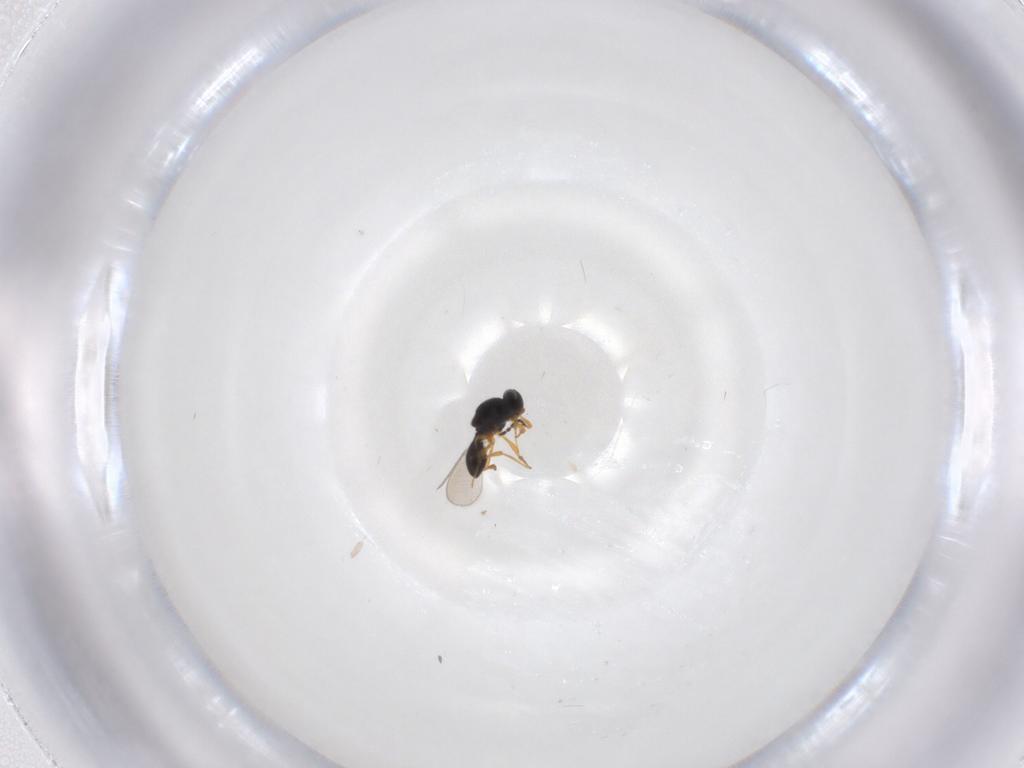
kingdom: Animalia
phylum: Arthropoda
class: Insecta
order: Hymenoptera
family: Platygastridae
